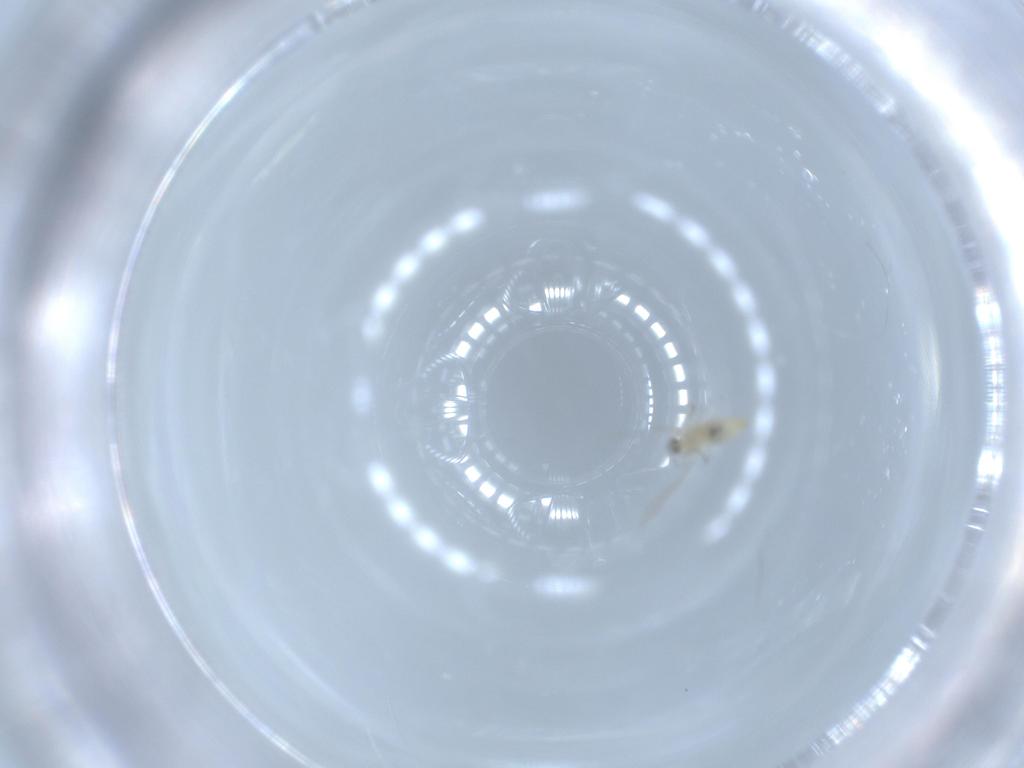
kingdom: Animalia
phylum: Arthropoda
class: Insecta
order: Diptera
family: Cecidomyiidae
